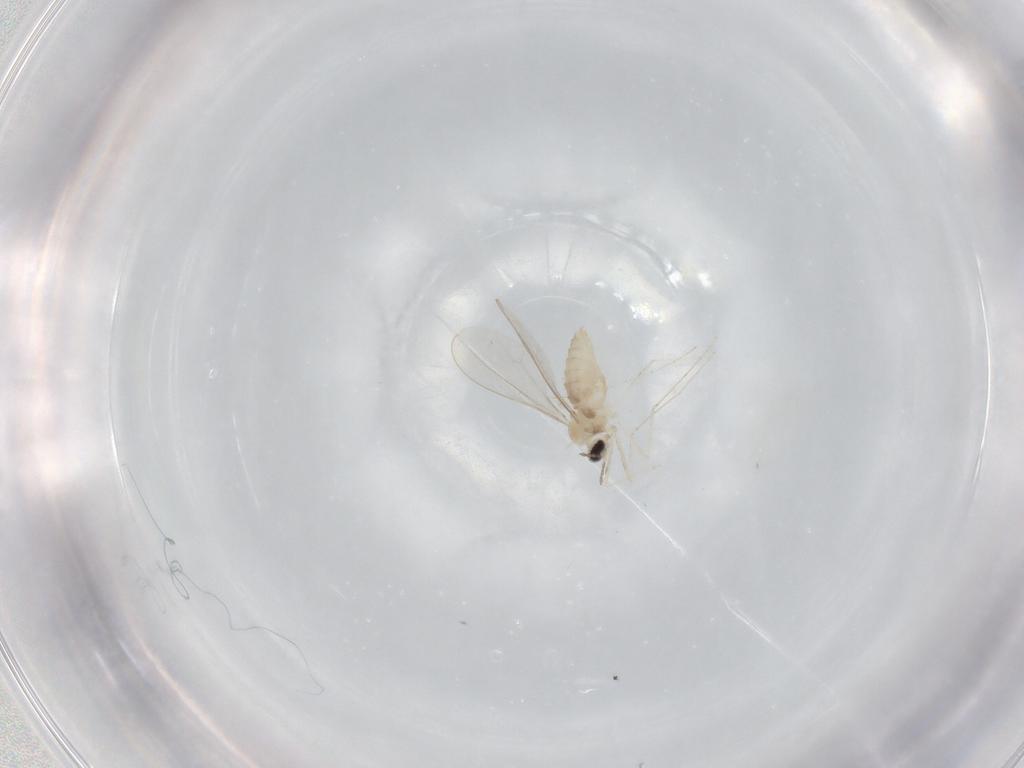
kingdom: Animalia
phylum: Arthropoda
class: Insecta
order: Diptera
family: Cecidomyiidae
